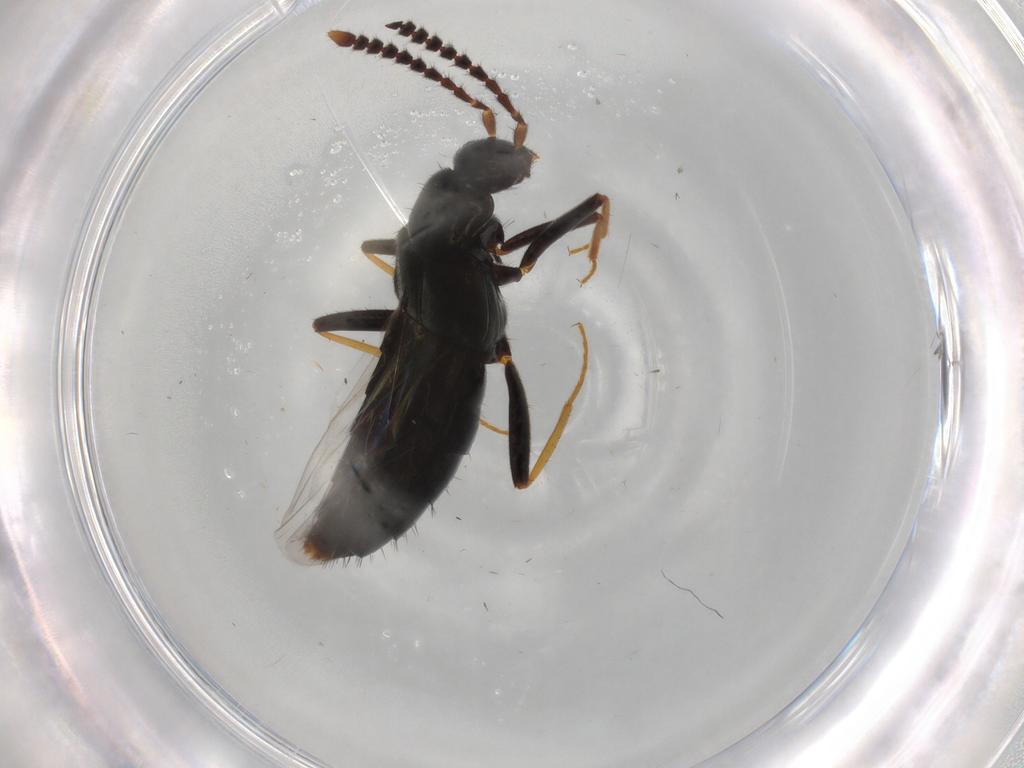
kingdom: Animalia
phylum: Arthropoda
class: Insecta
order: Coleoptera
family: Staphylinidae
